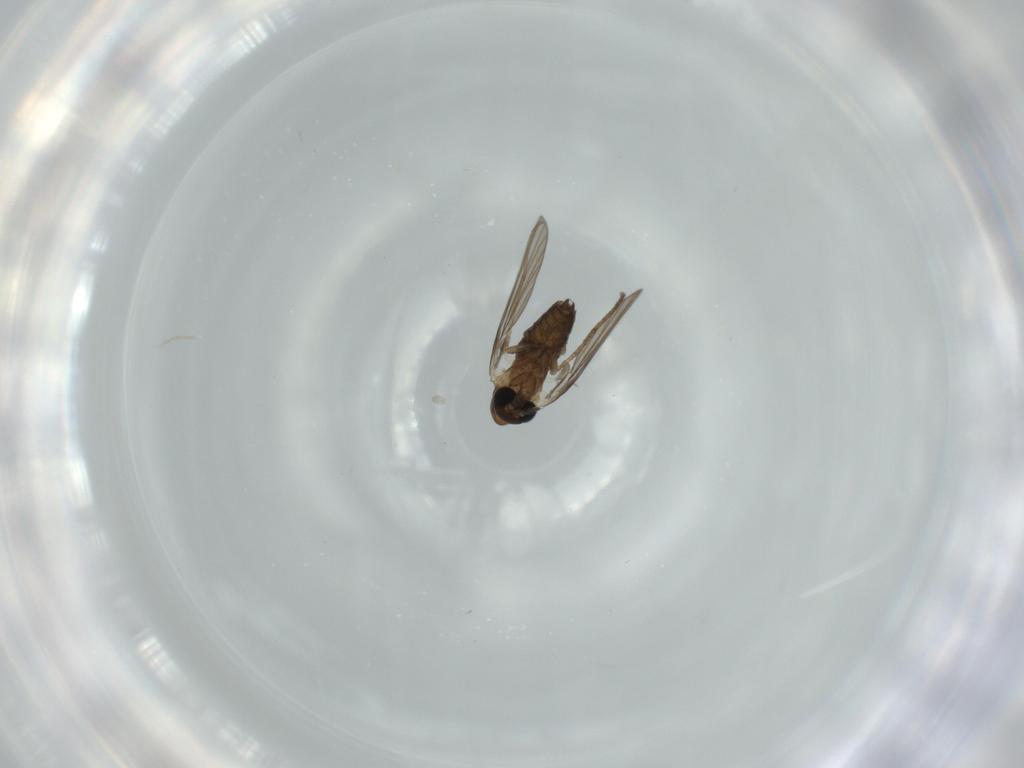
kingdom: Animalia
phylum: Arthropoda
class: Insecta
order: Diptera
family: Psychodidae
